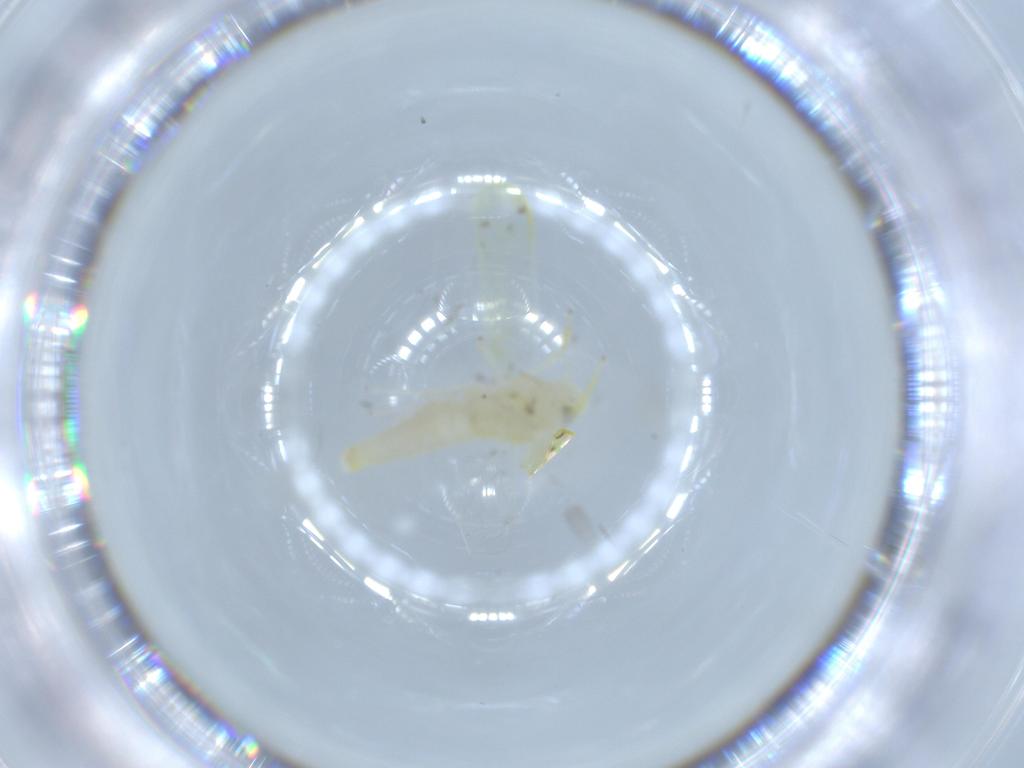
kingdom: Animalia
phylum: Arthropoda
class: Insecta
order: Hemiptera
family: Cicadellidae
